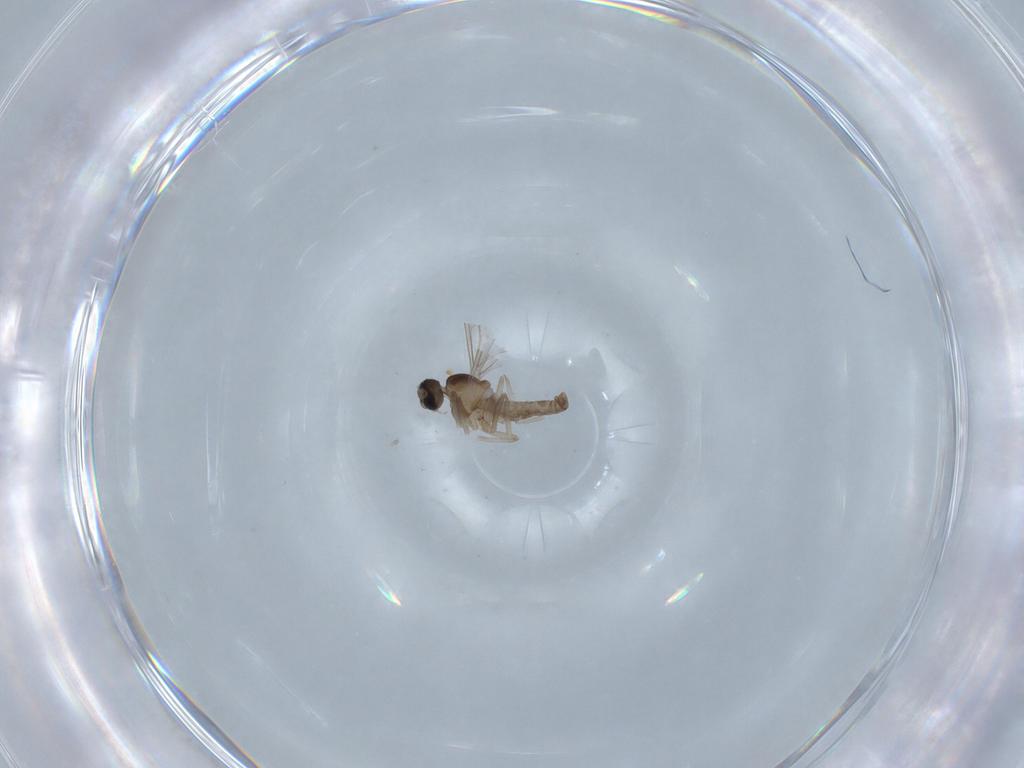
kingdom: Animalia
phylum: Arthropoda
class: Insecta
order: Diptera
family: Cecidomyiidae
